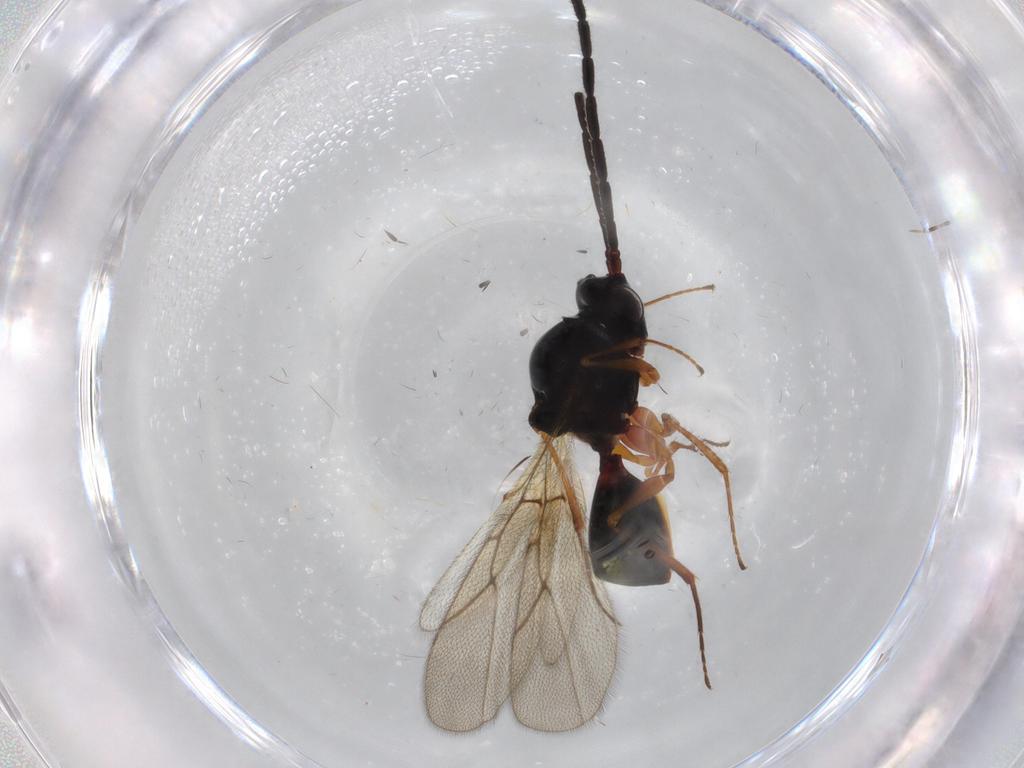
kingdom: Animalia
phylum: Arthropoda
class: Insecta
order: Hymenoptera
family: Figitidae
